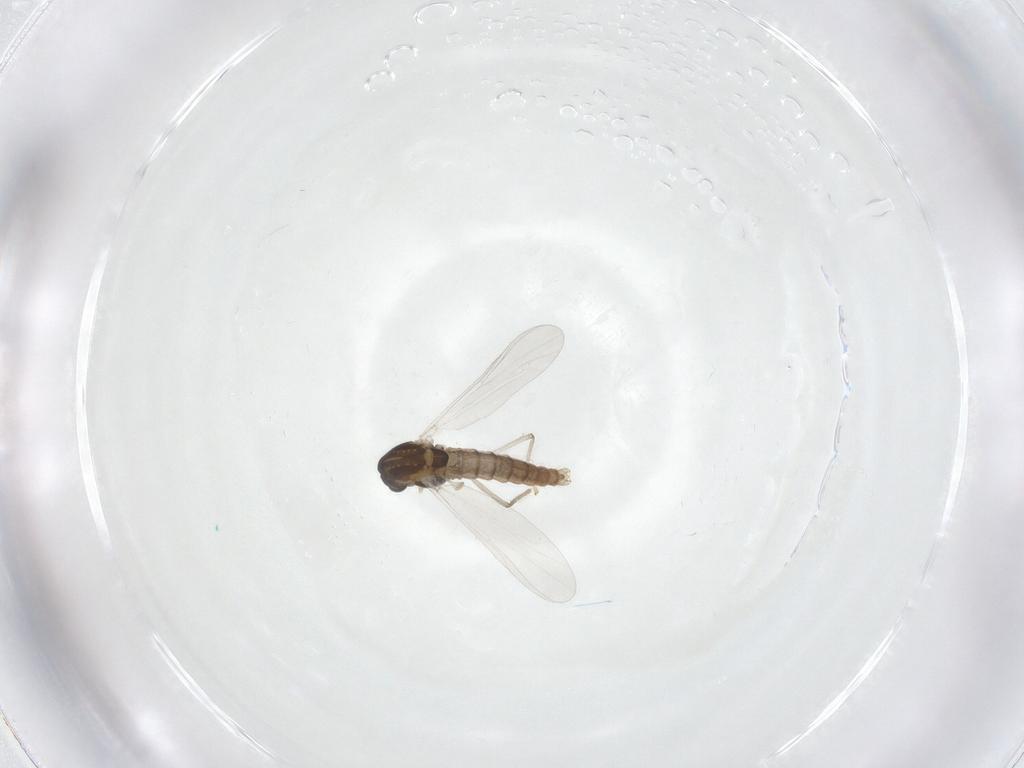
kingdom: Animalia
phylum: Arthropoda
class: Insecta
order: Diptera
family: Chironomidae
